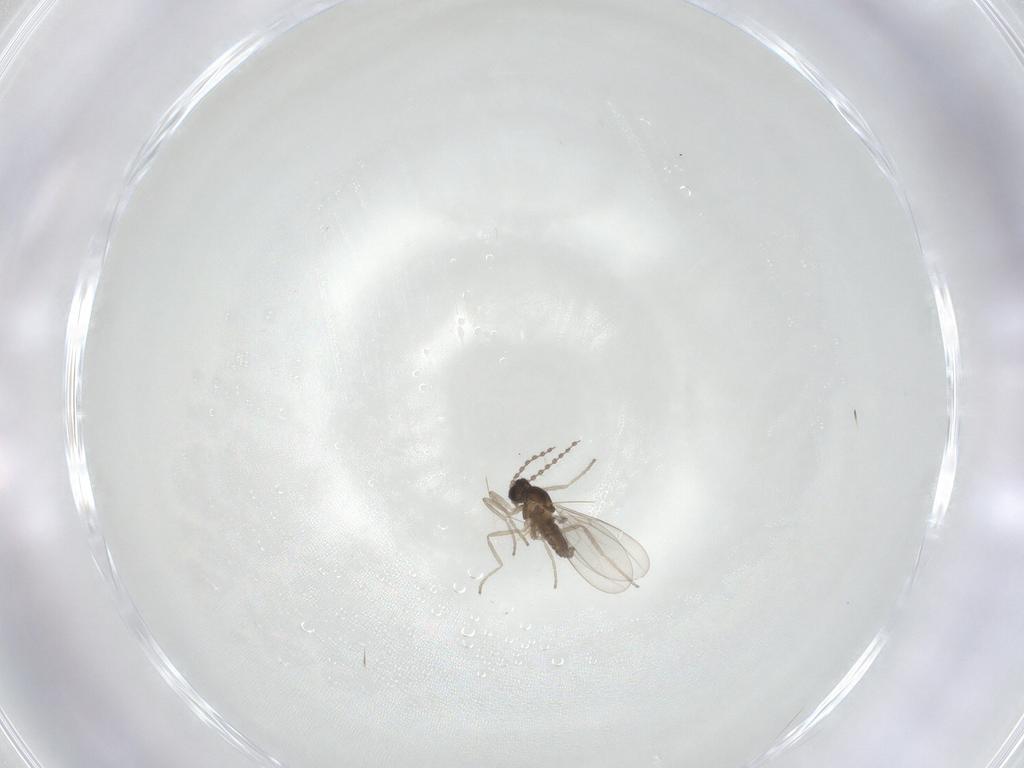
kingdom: Animalia
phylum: Arthropoda
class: Insecta
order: Diptera
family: Cecidomyiidae
